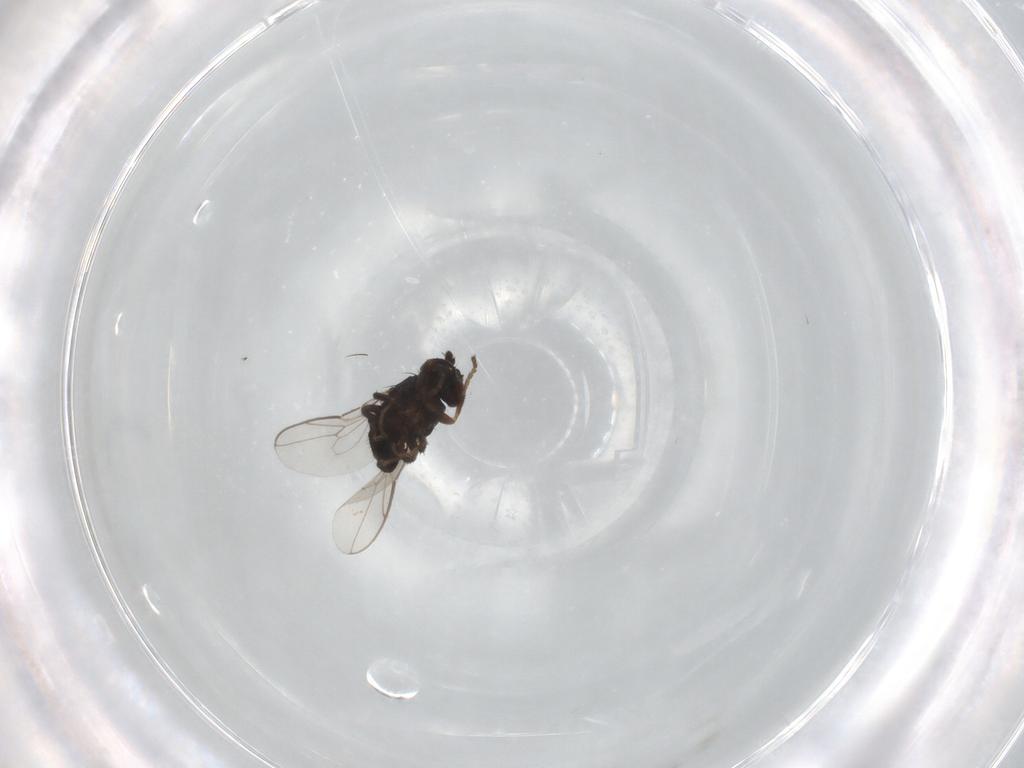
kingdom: Animalia
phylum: Arthropoda
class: Insecta
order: Diptera
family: Sphaeroceridae
